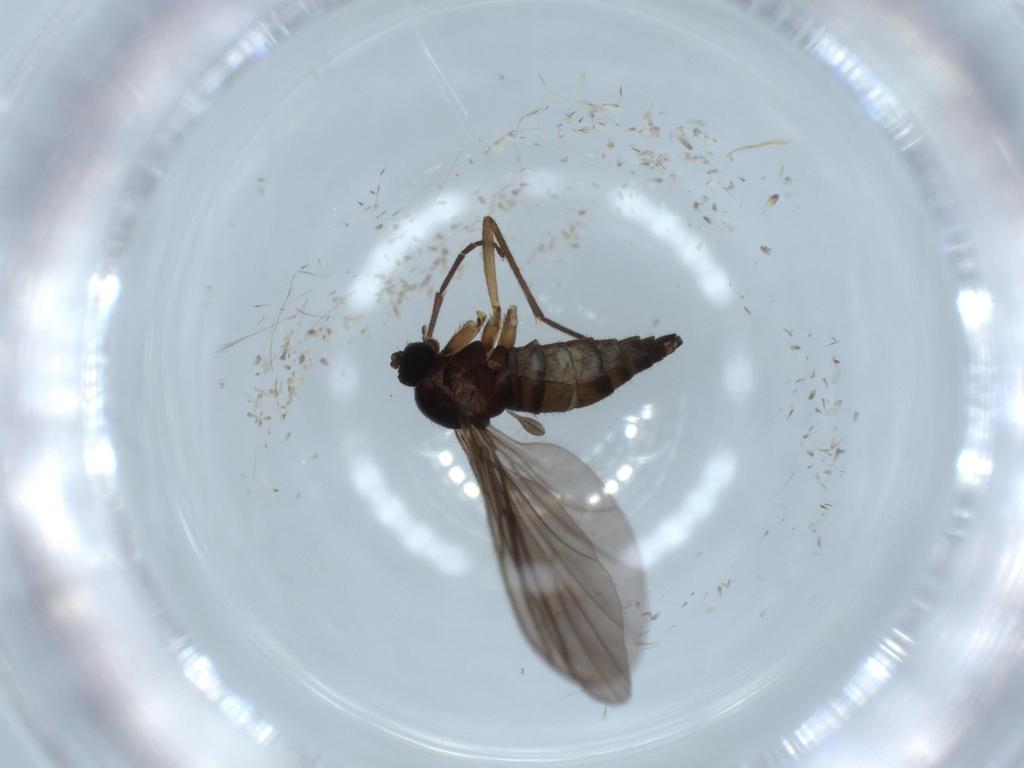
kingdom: Animalia
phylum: Arthropoda
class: Insecta
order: Diptera
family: Sciaridae
